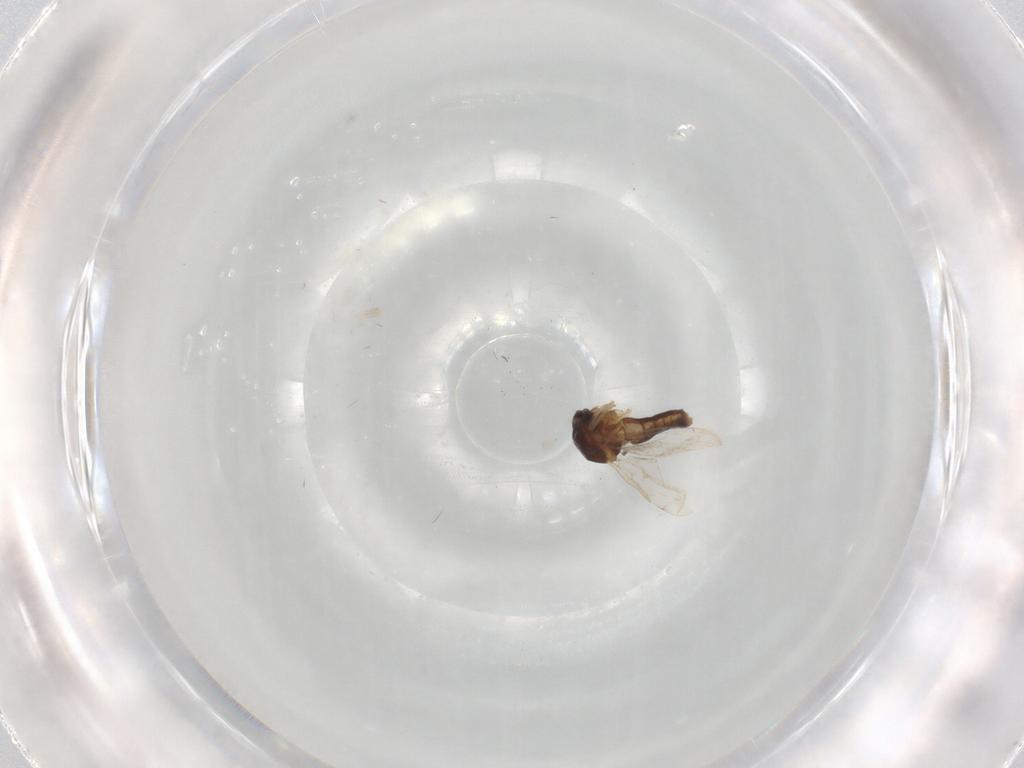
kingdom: Animalia
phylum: Arthropoda
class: Insecta
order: Diptera
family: Ceratopogonidae
